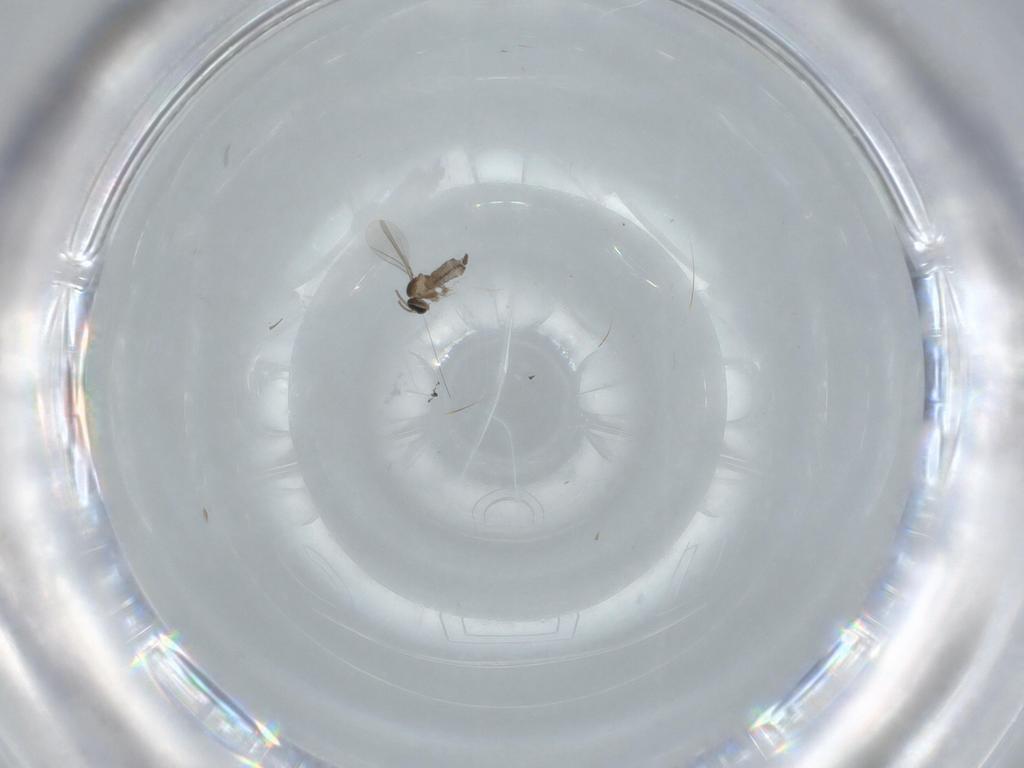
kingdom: Animalia
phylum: Arthropoda
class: Insecta
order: Diptera
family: Cecidomyiidae
